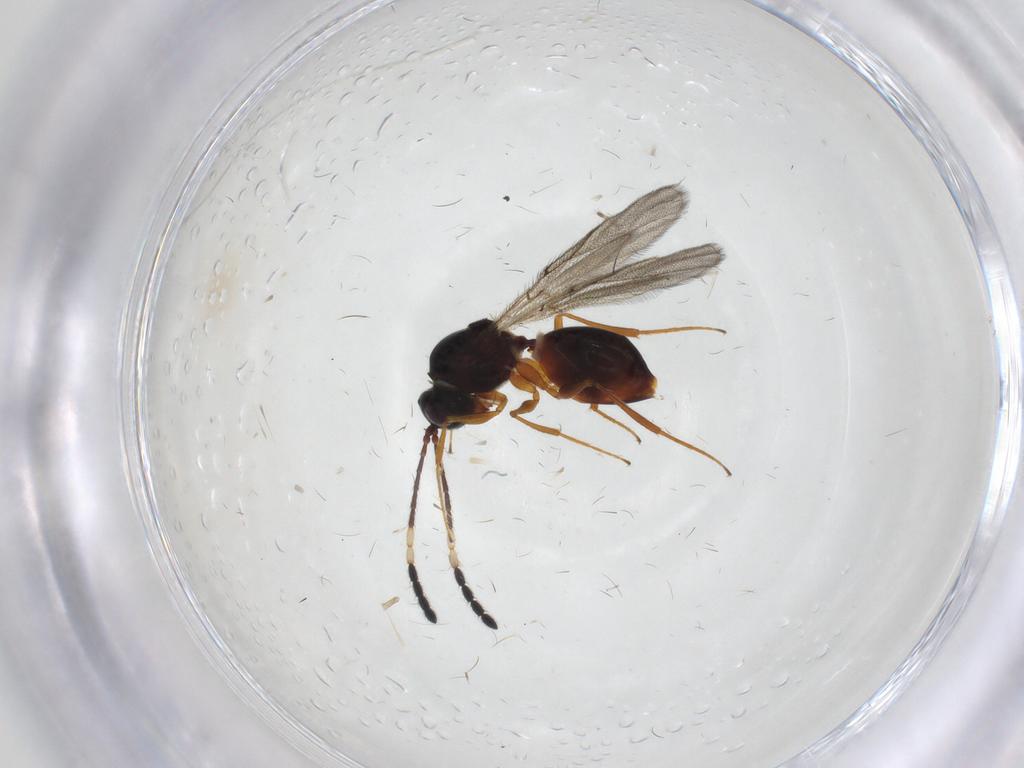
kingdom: Animalia
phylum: Arthropoda
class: Insecta
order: Hymenoptera
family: Figitidae
